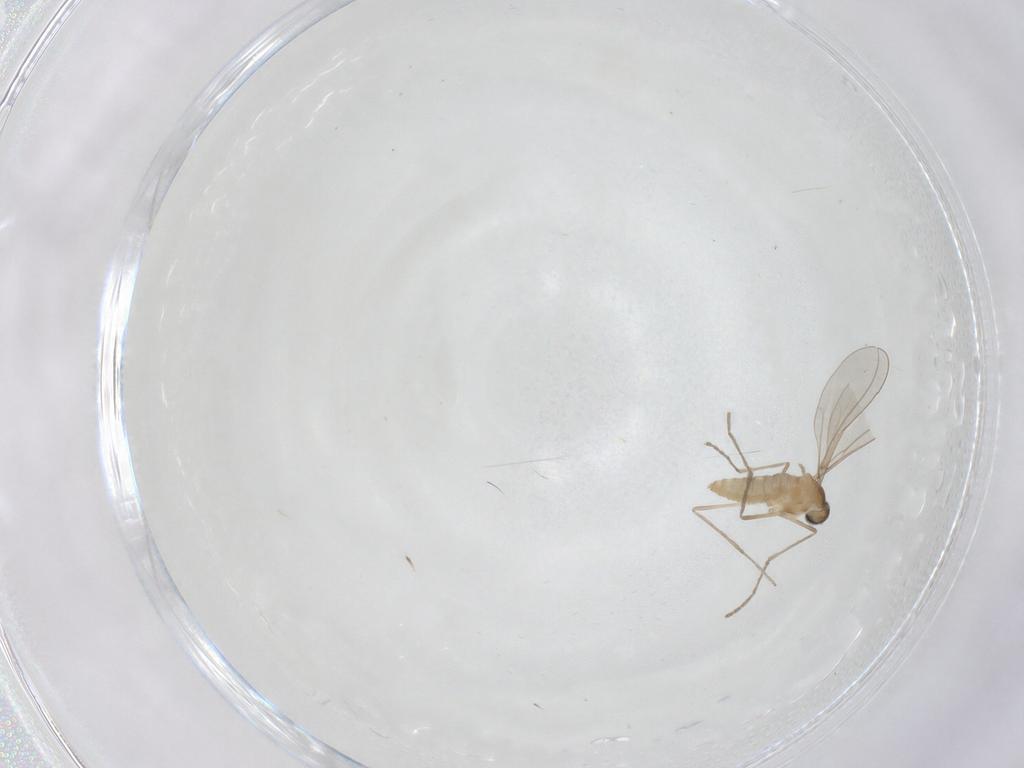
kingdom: Animalia
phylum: Arthropoda
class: Insecta
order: Diptera
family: Cecidomyiidae
